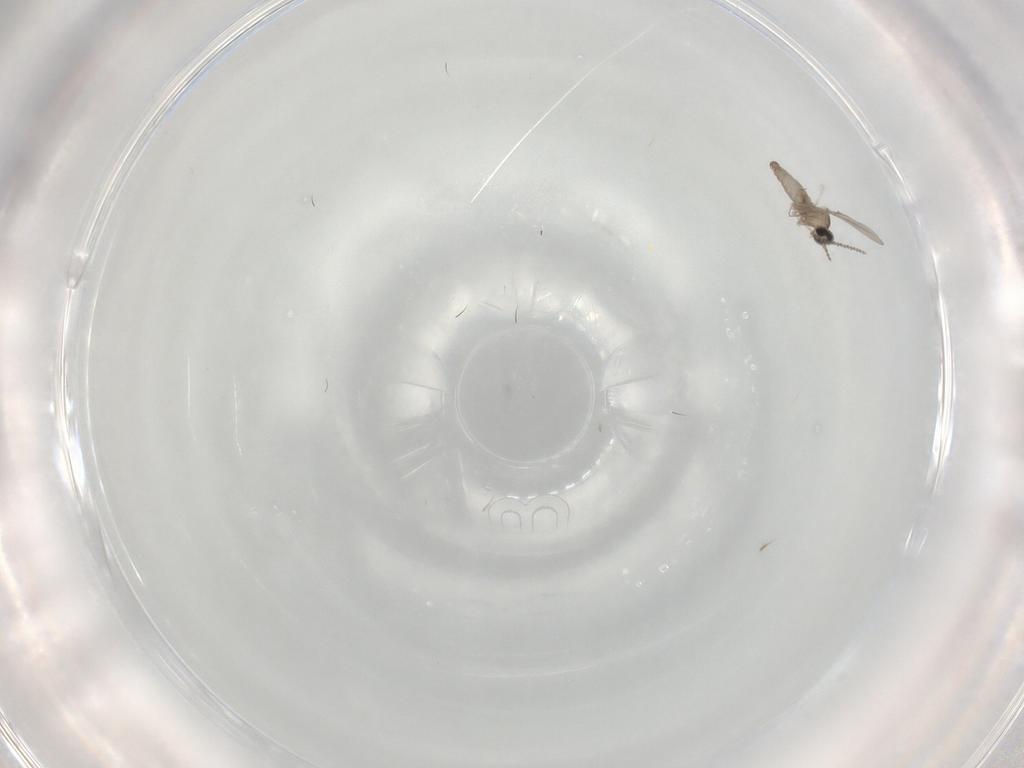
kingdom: Animalia
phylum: Arthropoda
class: Insecta
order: Diptera
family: Cecidomyiidae
